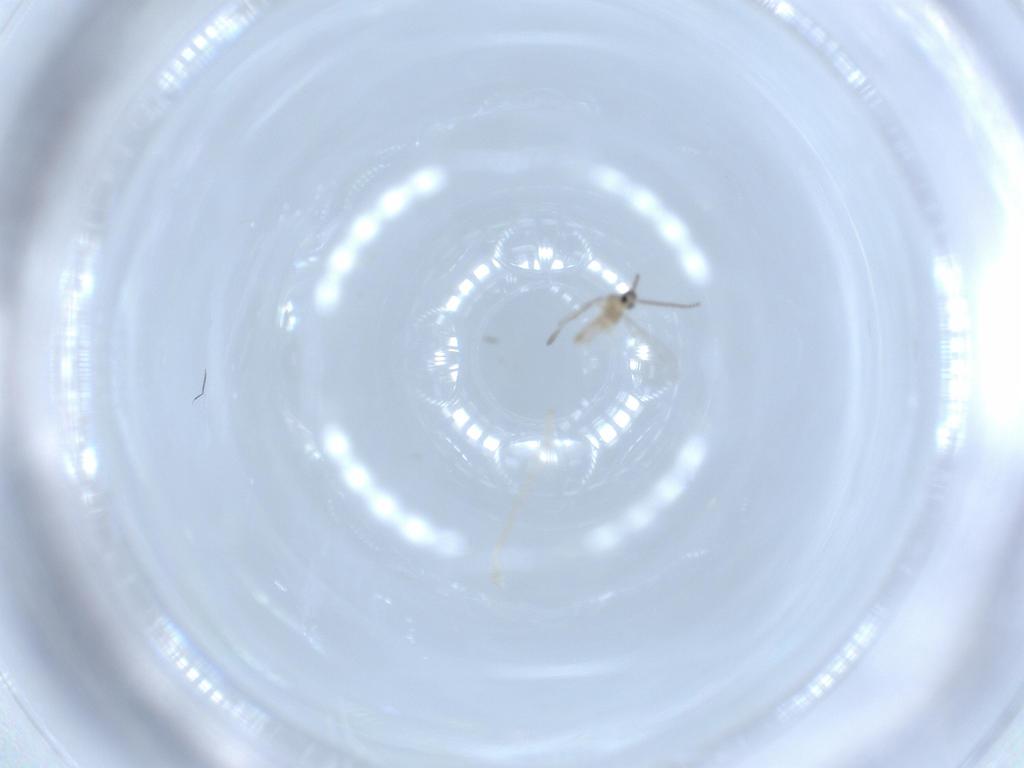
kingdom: Animalia
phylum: Arthropoda
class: Insecta
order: Diptera
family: Cecidomyiidae
